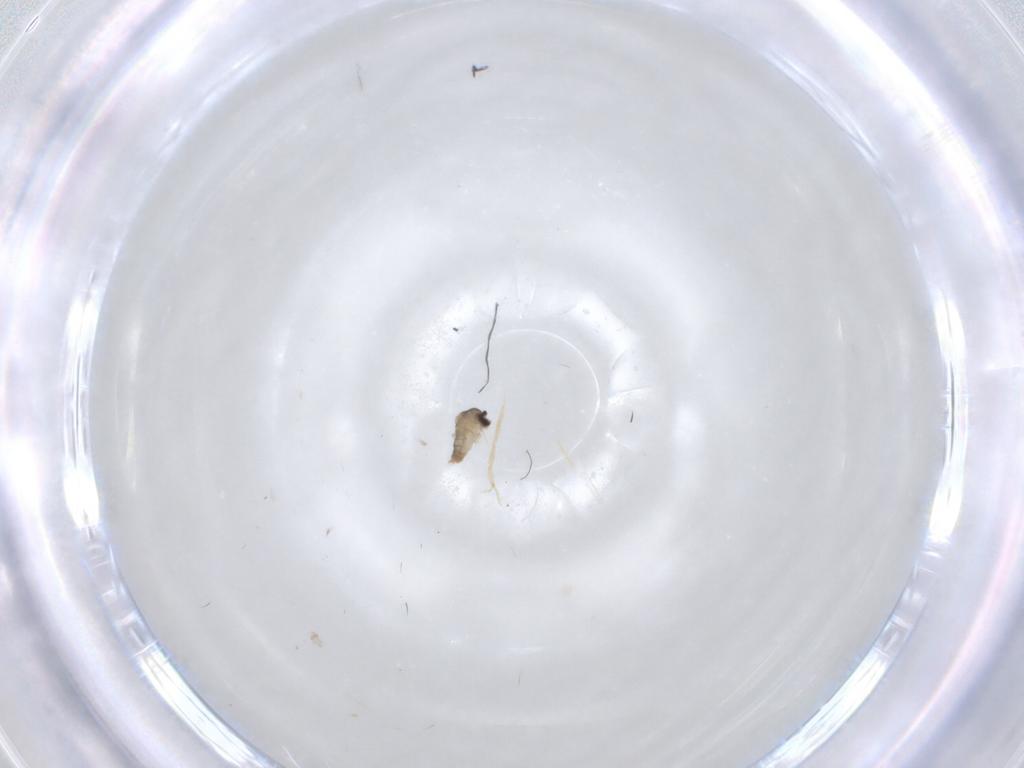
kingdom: Animalia
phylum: Arthropoda
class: Insecta
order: Diptera
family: Cecidomyiidae
